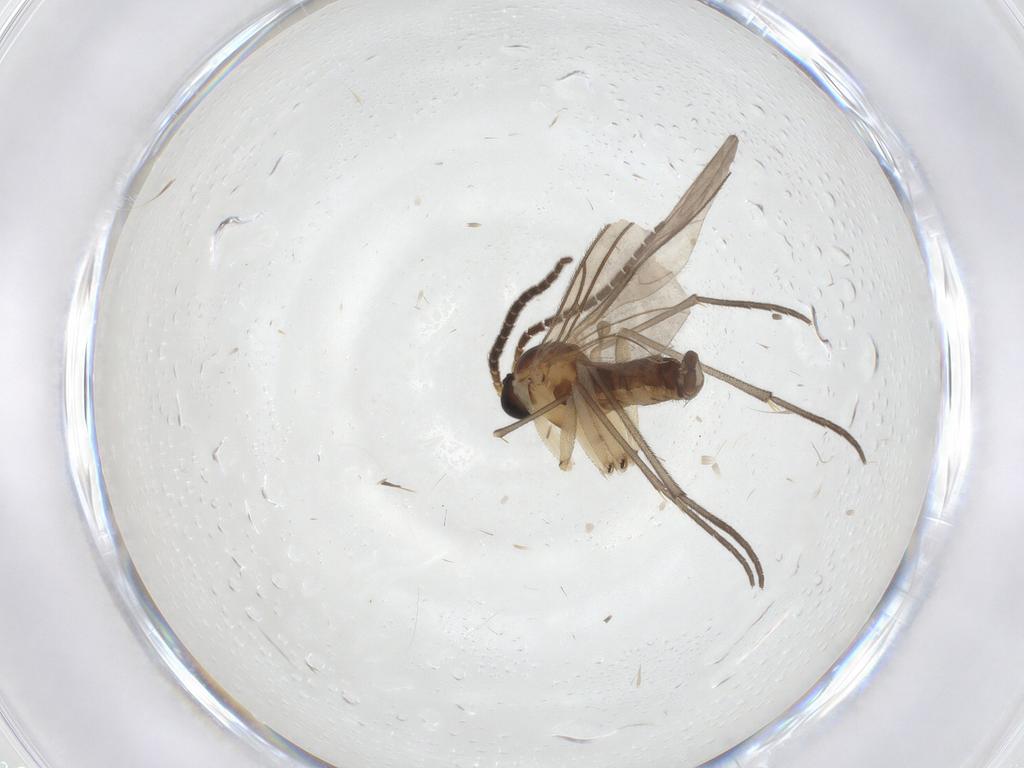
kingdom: Animalia
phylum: Arthropoda
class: Insecta
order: Diptera
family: Sciaridae
